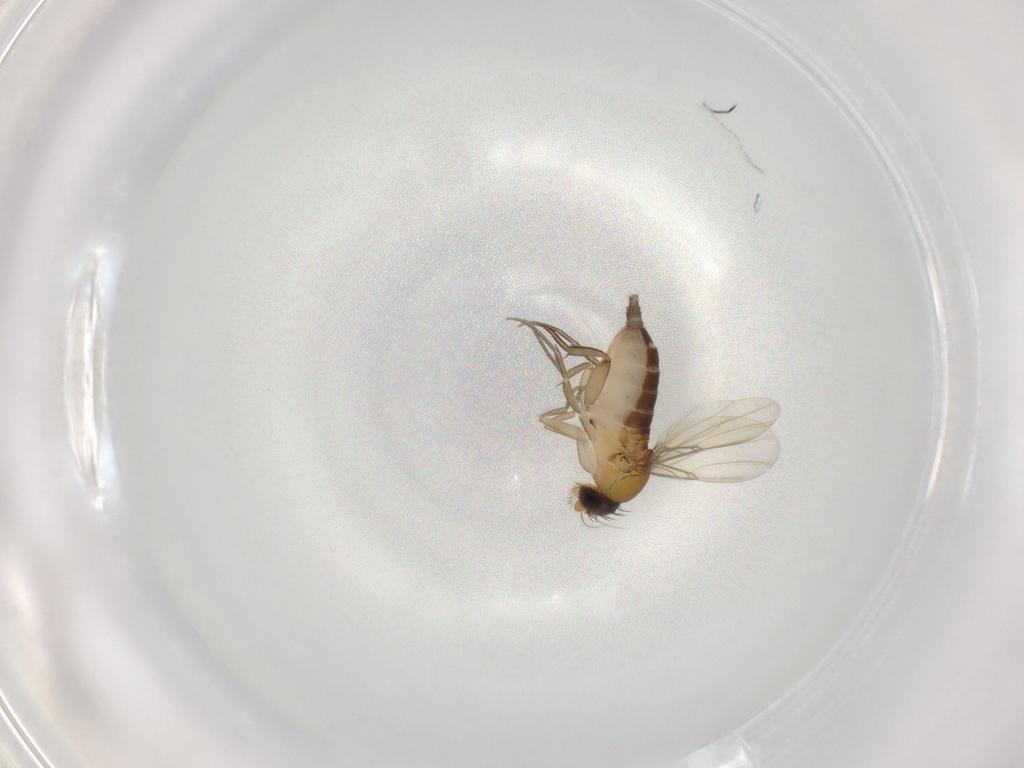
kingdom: Animalia
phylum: Arthropoda
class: Insecta
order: Diptera
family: Phoridae
